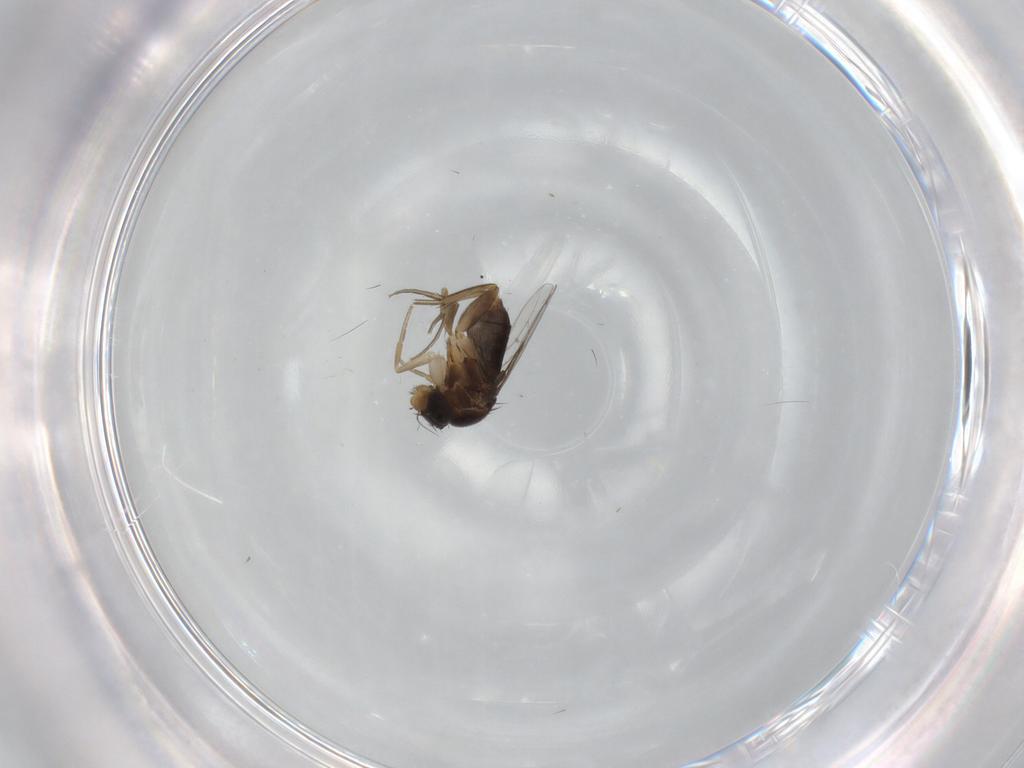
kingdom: Animalia
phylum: Arthropoda
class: Insecta
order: Diptera
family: Phoridae
